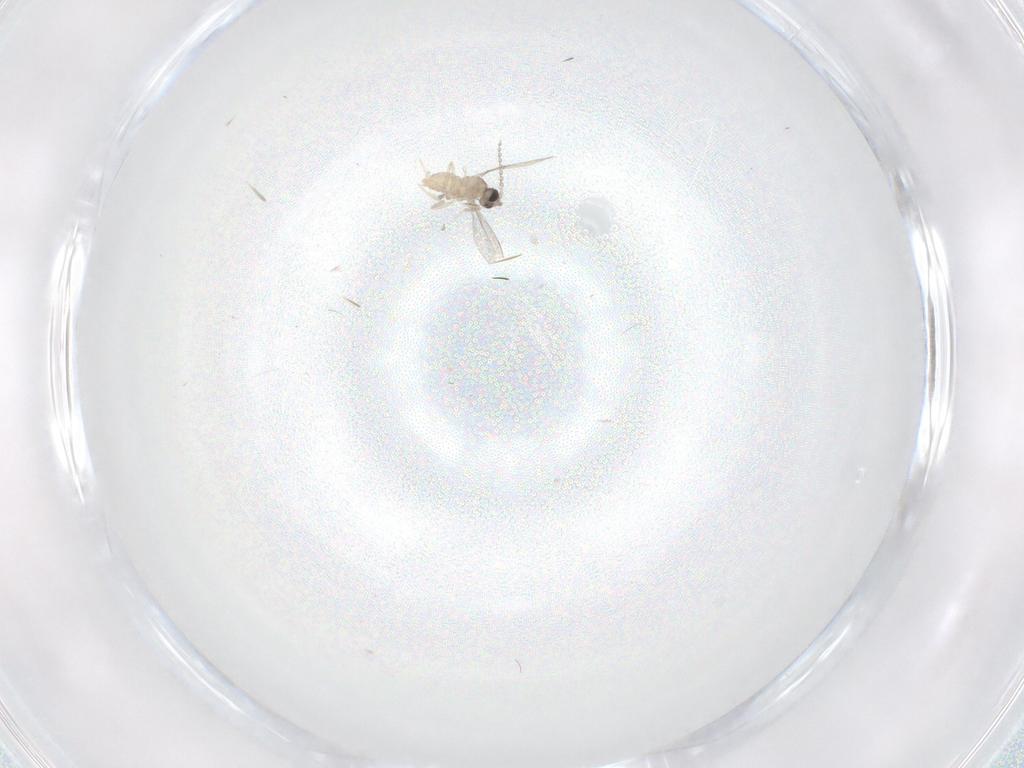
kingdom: Animalia
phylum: Arthropoda
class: Insecta
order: Diptera
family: Cecidomyiidae
